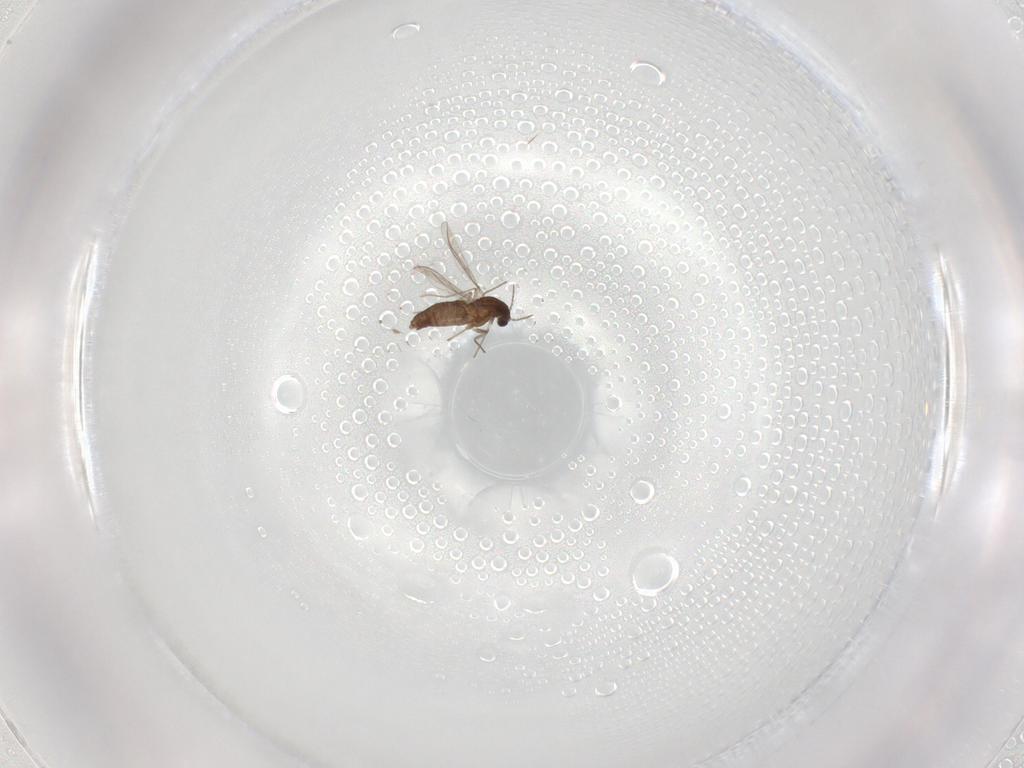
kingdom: Animalia
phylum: Arthropoda
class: Insecta
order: Diptera
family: Chironomidae
